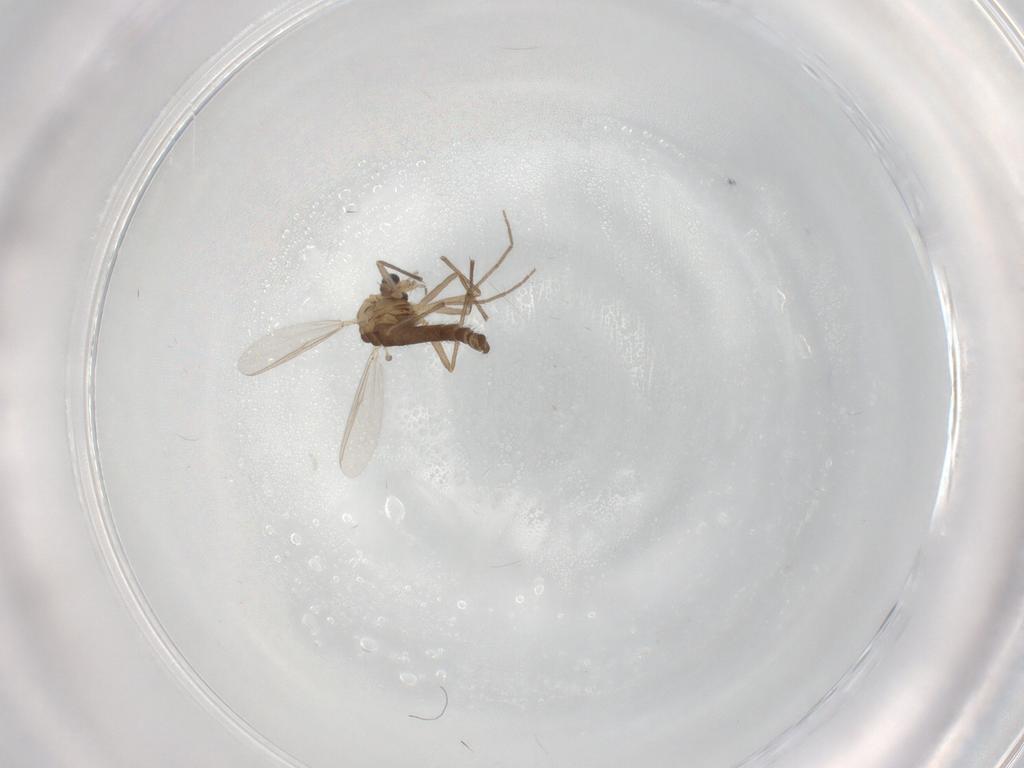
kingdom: Animalia
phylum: Arthropoda
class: Insecta
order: Diptera
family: Chironomidae
